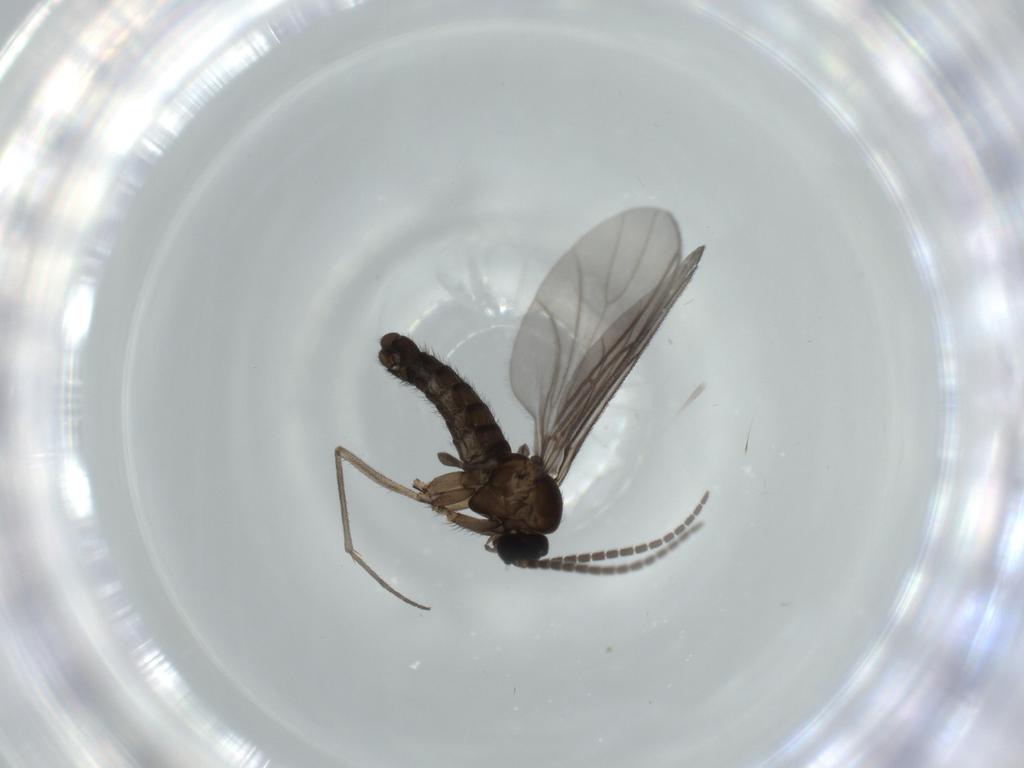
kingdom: Animalia
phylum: Arthropoda
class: Insecta
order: Diptera
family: Sciaridae
